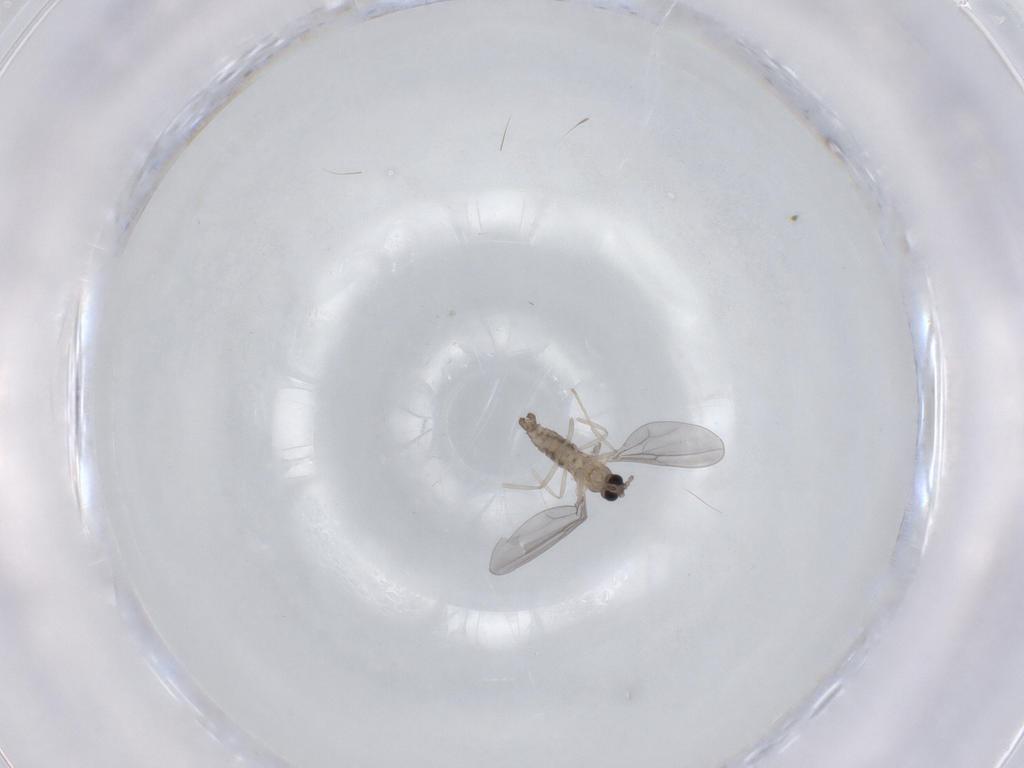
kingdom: Animalia
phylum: Arthropoda
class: Insecta
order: Diptera
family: Cecidomyiidae
